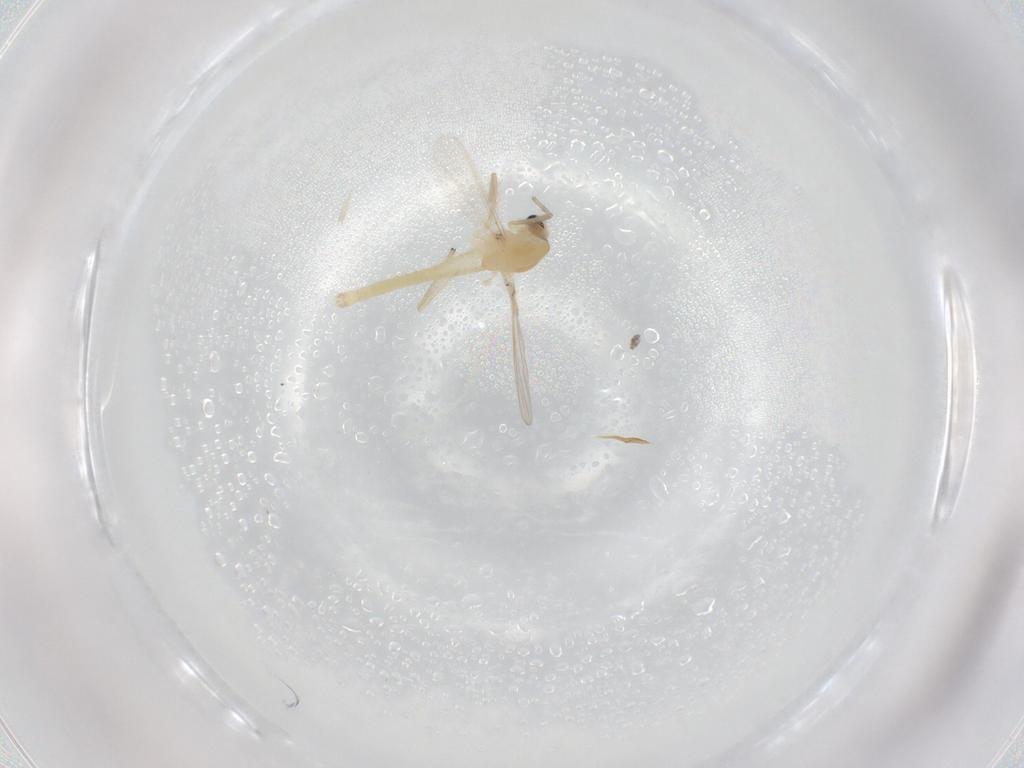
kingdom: Animalia
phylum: Arthropoda
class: Insecta
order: Diptera
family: Chironomidae
